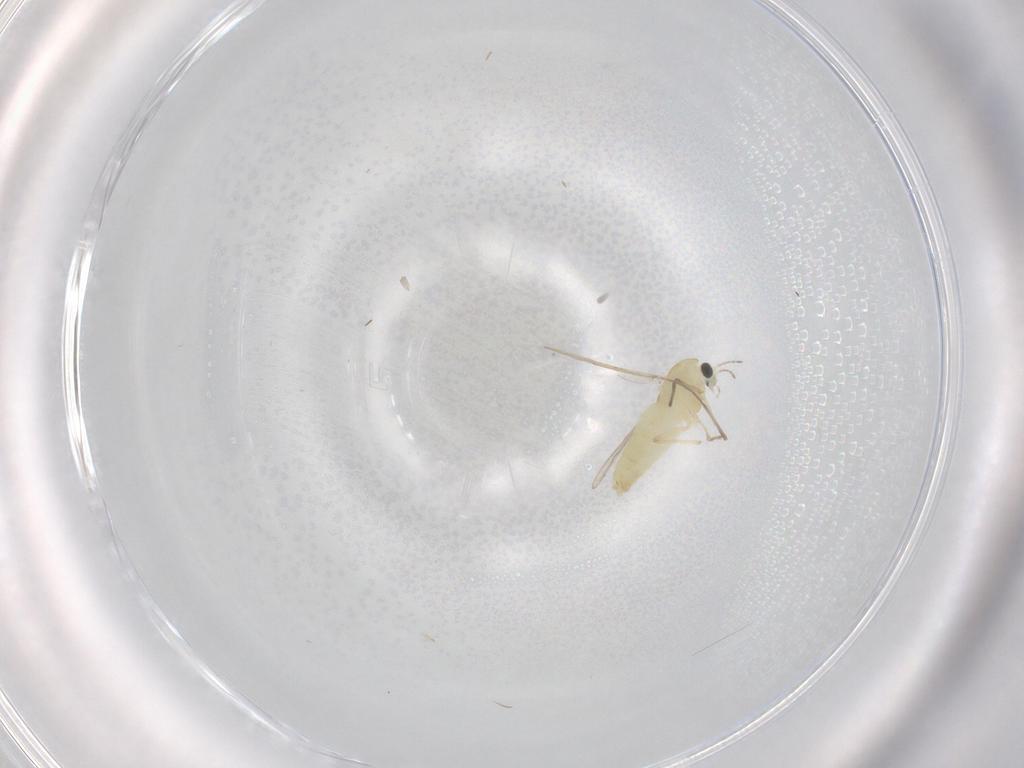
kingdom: Animalia
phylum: Arthropoda
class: Insecta
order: Diptera
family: Chironomidae
